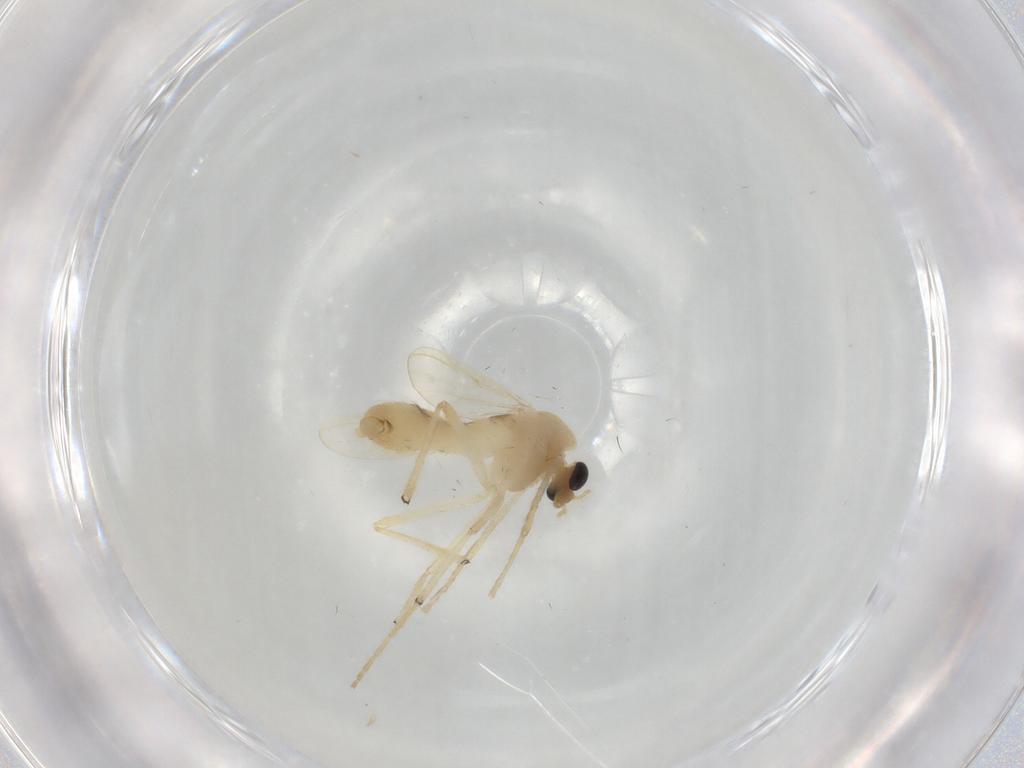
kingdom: Animalia
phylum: Arthropoda
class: Insecta
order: Diptera
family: Chironomidae
